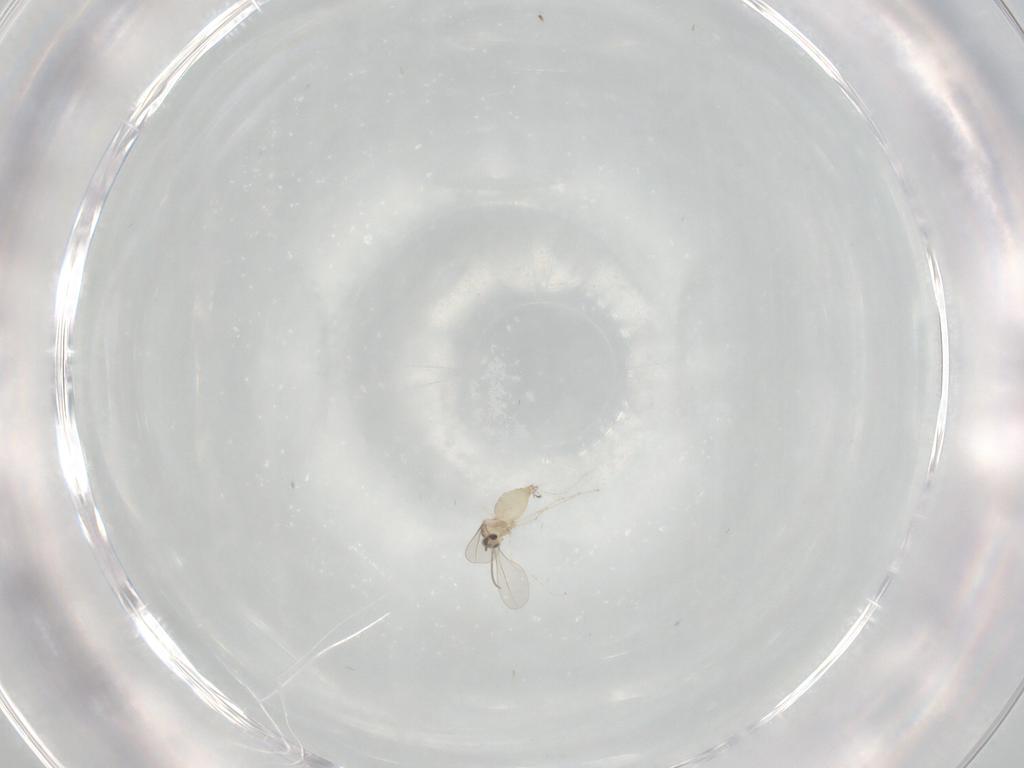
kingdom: Animalia
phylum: Arthropoda
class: Insecta
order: Diptera
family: Cecidomyiidae
